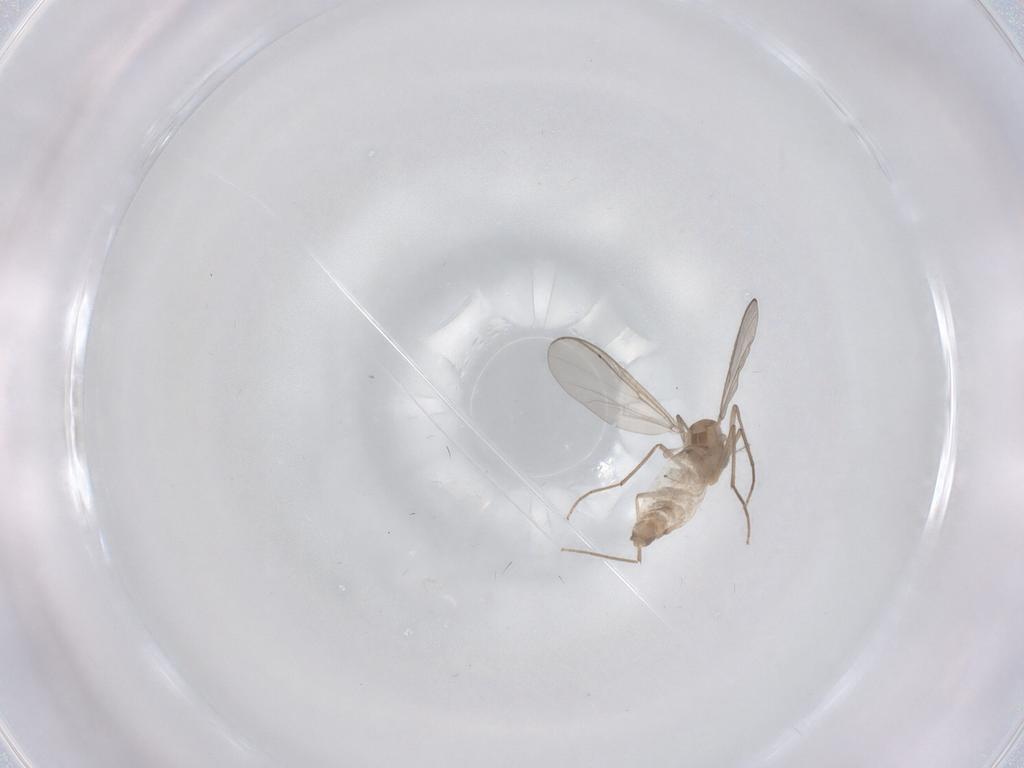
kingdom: Animalia
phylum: Arthropoda
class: Insecta
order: Diptera
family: Chironomidae
